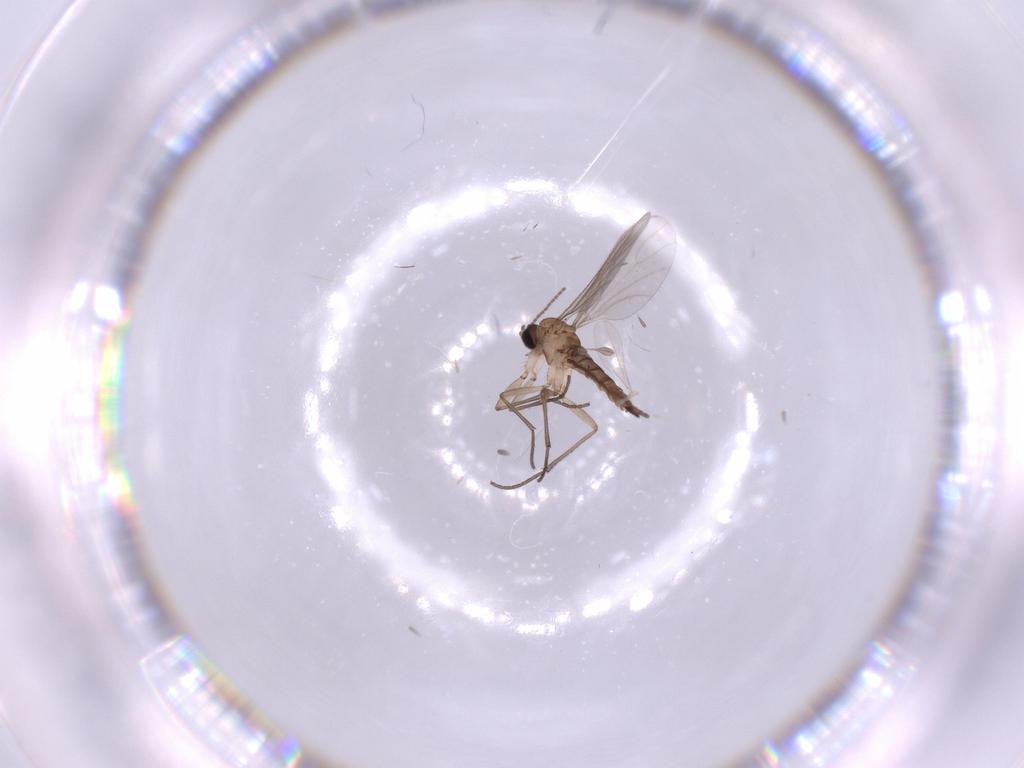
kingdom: Animalia
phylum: Arthropoda
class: Insecta
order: Diptera
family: Sciaridae
